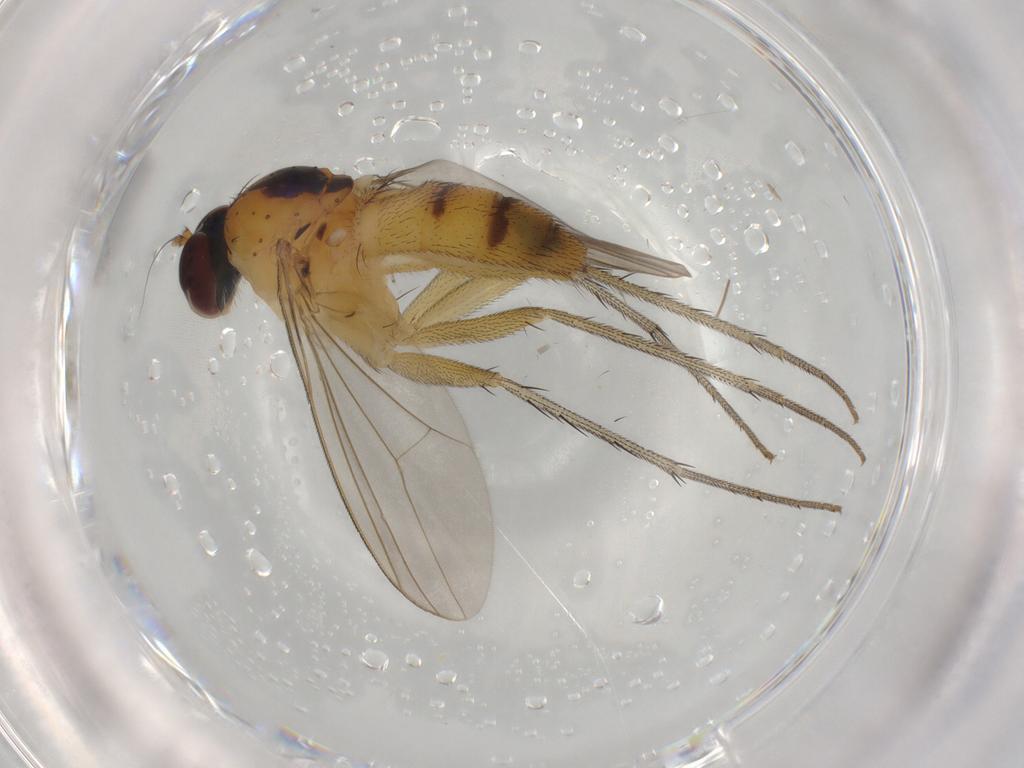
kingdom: Animalia
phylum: Arthropoda
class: Insecta
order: Diptera
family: Dolichopodidae
